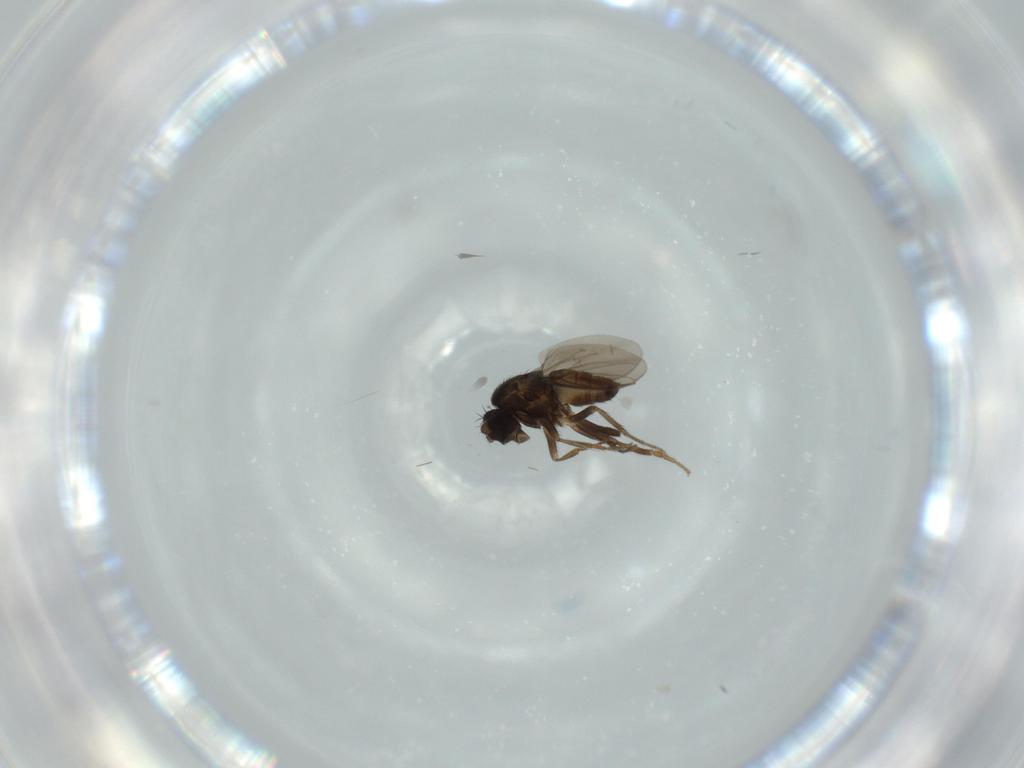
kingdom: Animalia
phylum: Arthropoda
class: Insecta
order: Diptera
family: Sphaeroceridae
